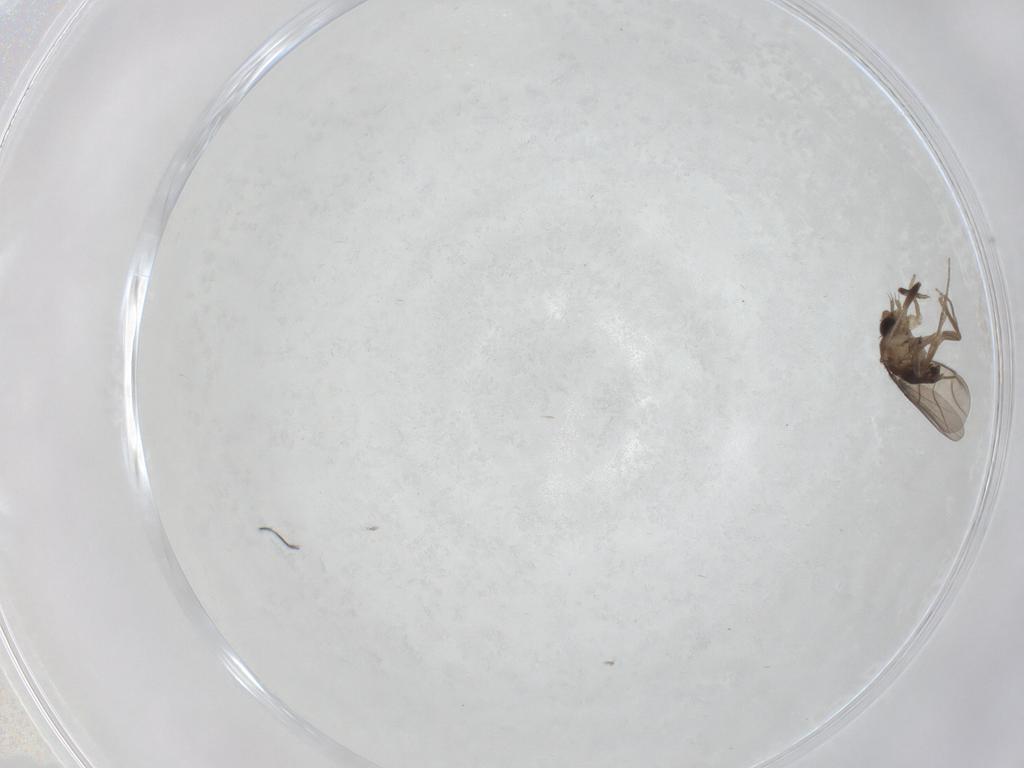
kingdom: Animalia
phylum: Arthropoda
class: Insecta
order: Diptera
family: Phoridae
